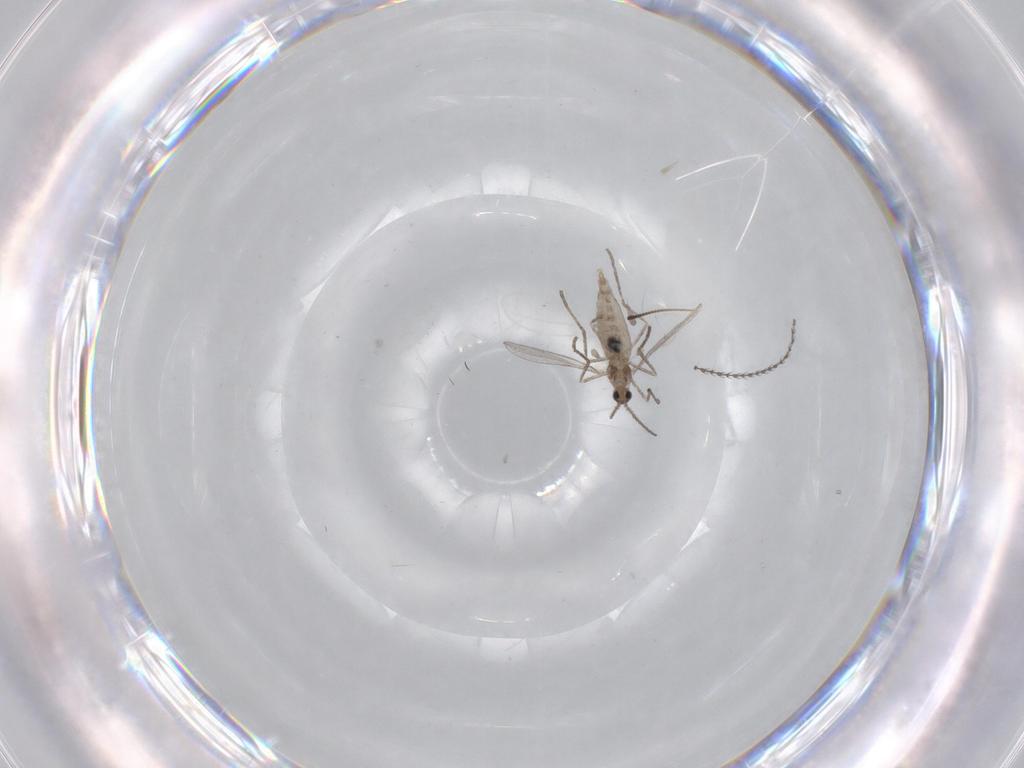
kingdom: Animalia
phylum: Arthropoda
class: Insecta
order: Diptera
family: Cecidomyiidae
